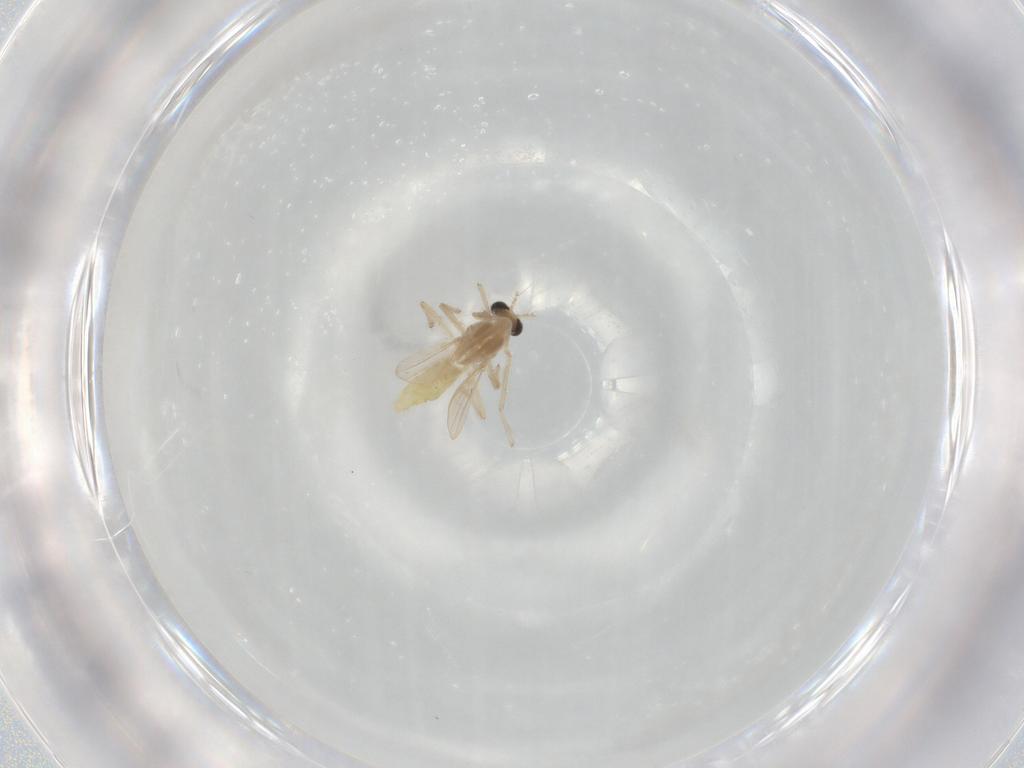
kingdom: Animalia
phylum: Arthropoda
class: Insecta
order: Diptera
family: Chironomidae
